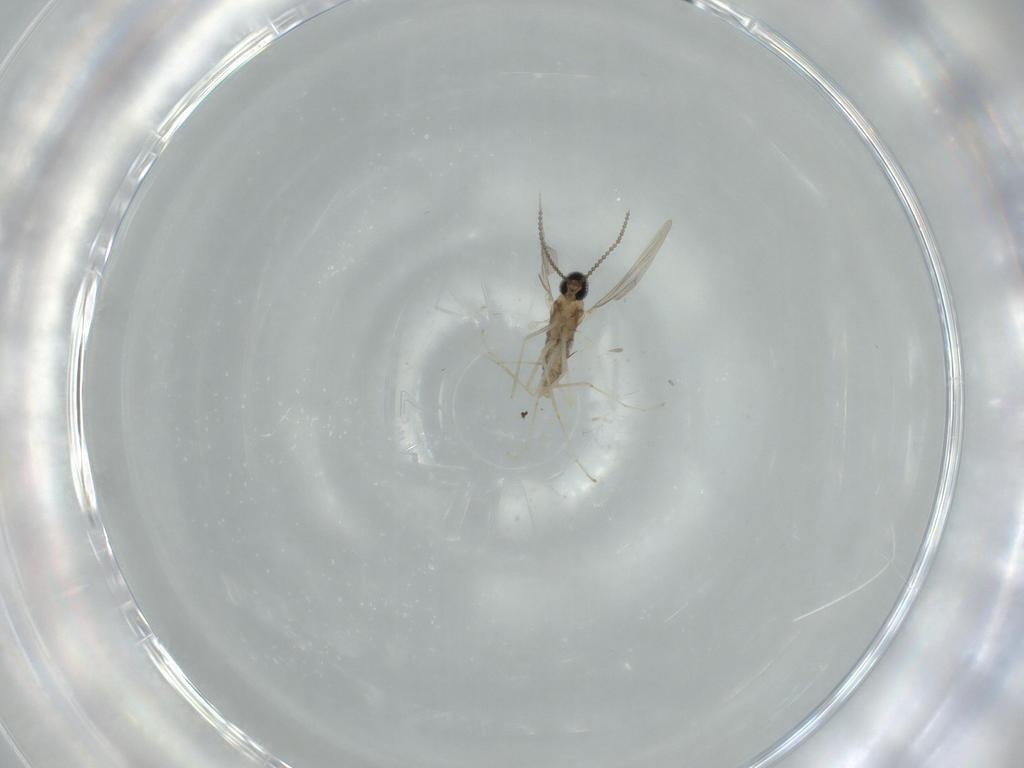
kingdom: Animalia
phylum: Arthropoda
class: Insecta
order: Diptera
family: Cecidomyiidae
